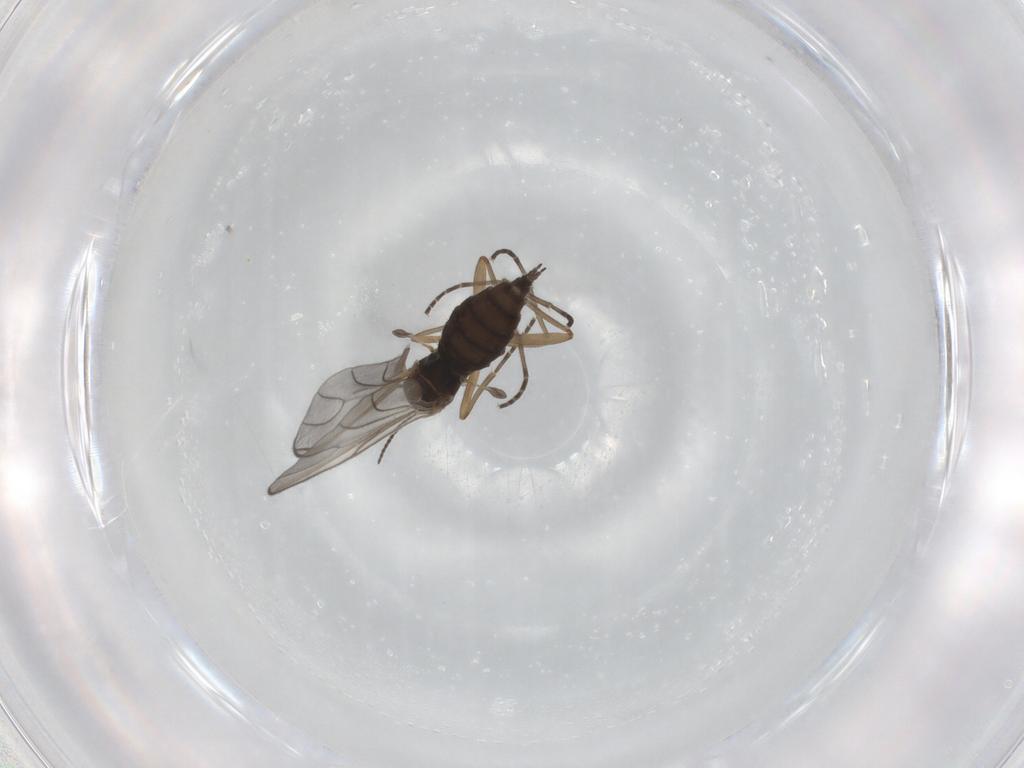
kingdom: Animalia
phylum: Arthropoda
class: Insecta
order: Diptera
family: Sciaridae
